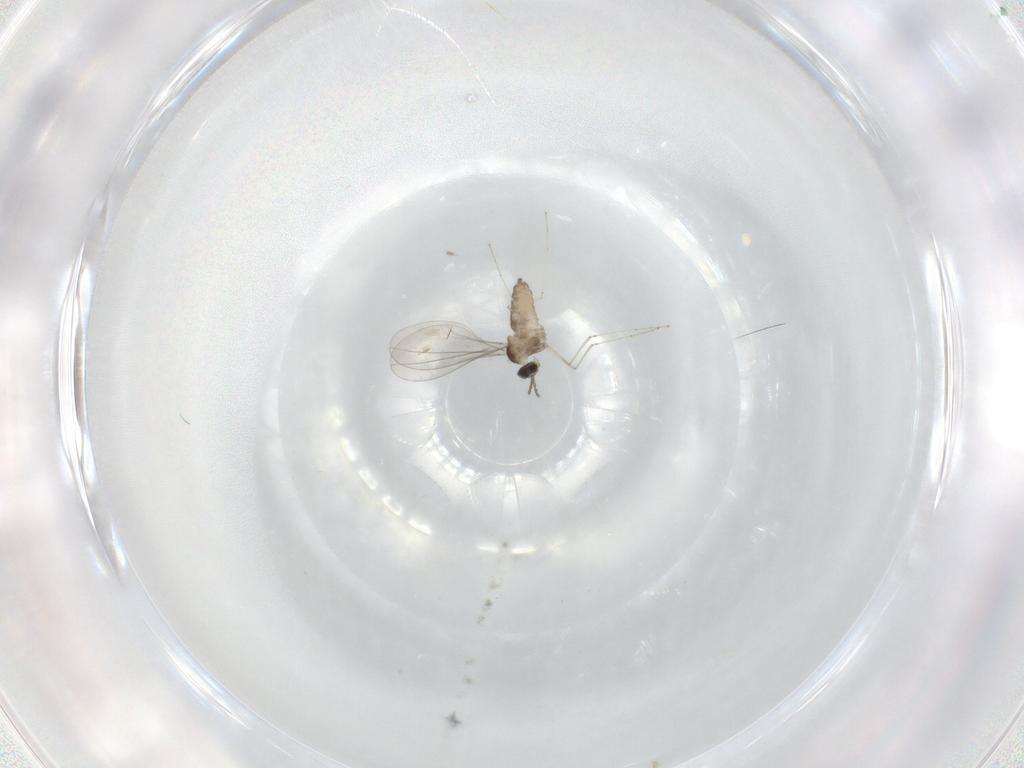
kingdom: Animalia
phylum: Arthropoda
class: Insecta
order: Diptera
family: Cecidomyiidae
